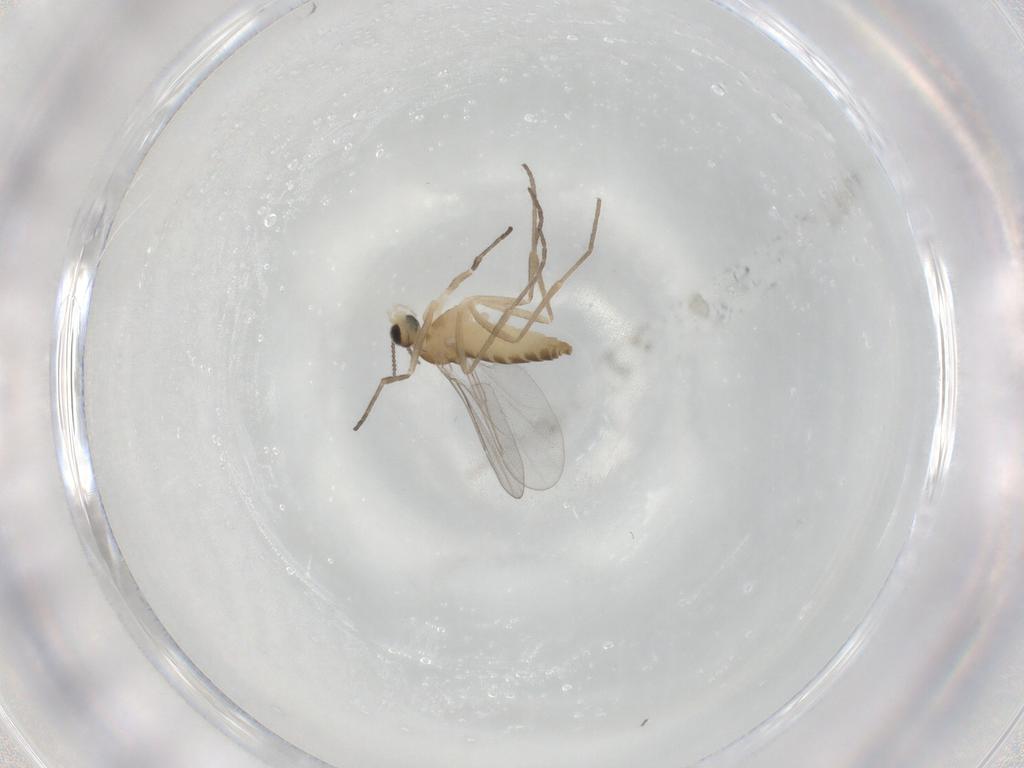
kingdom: Animalia
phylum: Arthropoda
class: Insecta
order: Diptera
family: Cecidomyiidae
